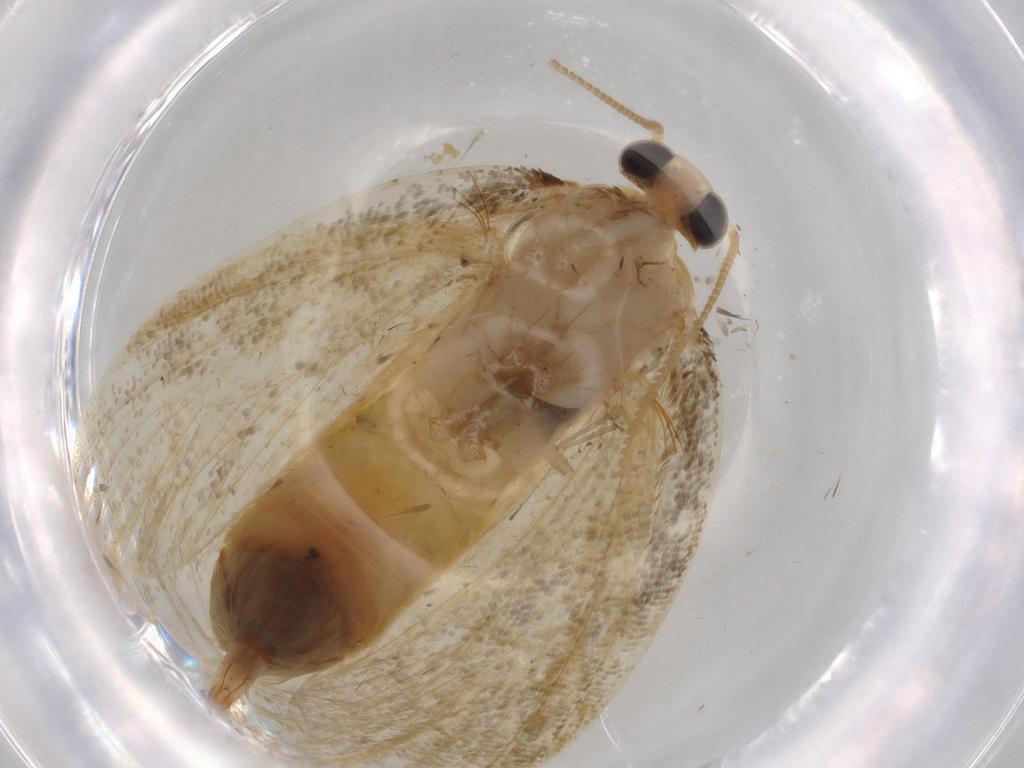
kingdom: Animalia
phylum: Arthropoda
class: Insecta
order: Lepidoptera
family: Psychidae
